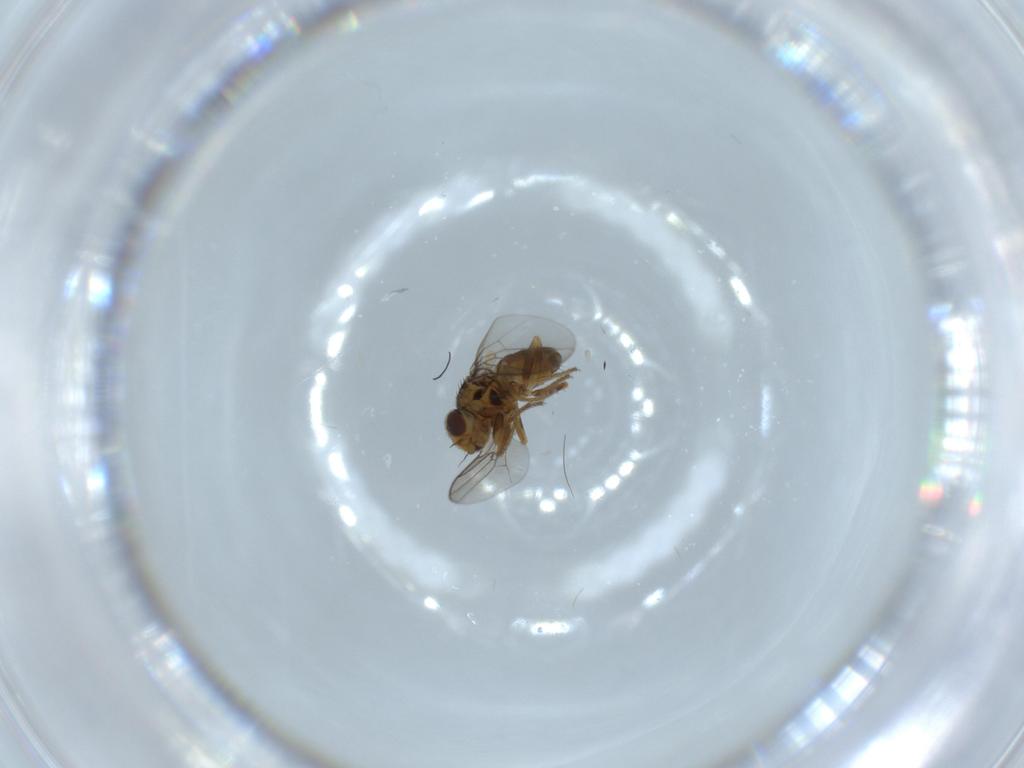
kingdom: Animalia
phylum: Arthropoda
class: Insecta
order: Diptera
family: Chloropidae
